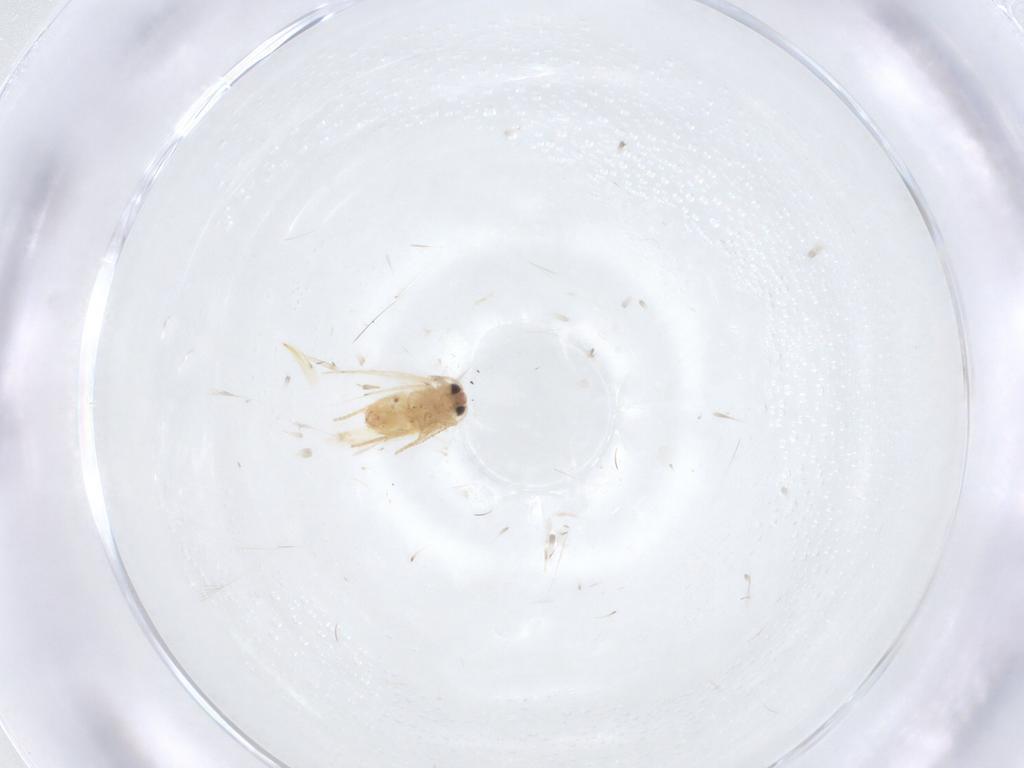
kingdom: Animalia
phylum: Arthropoda
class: Insecta
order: Lepidoptera
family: Crambidae
